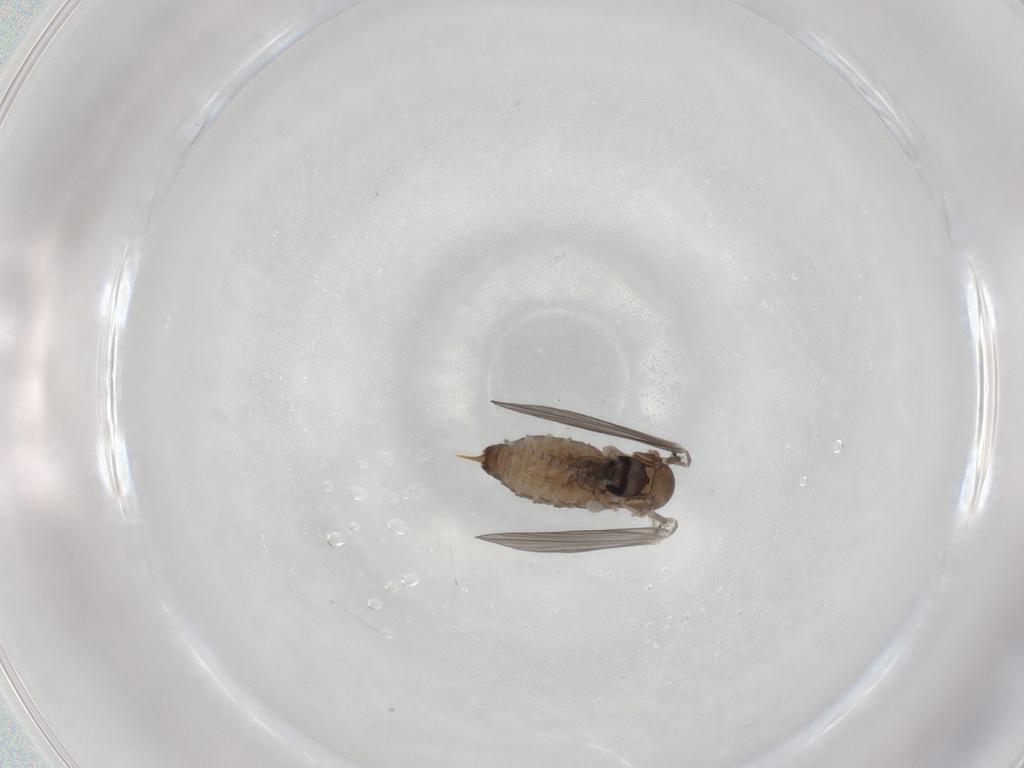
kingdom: Animalia
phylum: Arthropoda
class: Insecta
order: Diptera
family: Psychodidae
